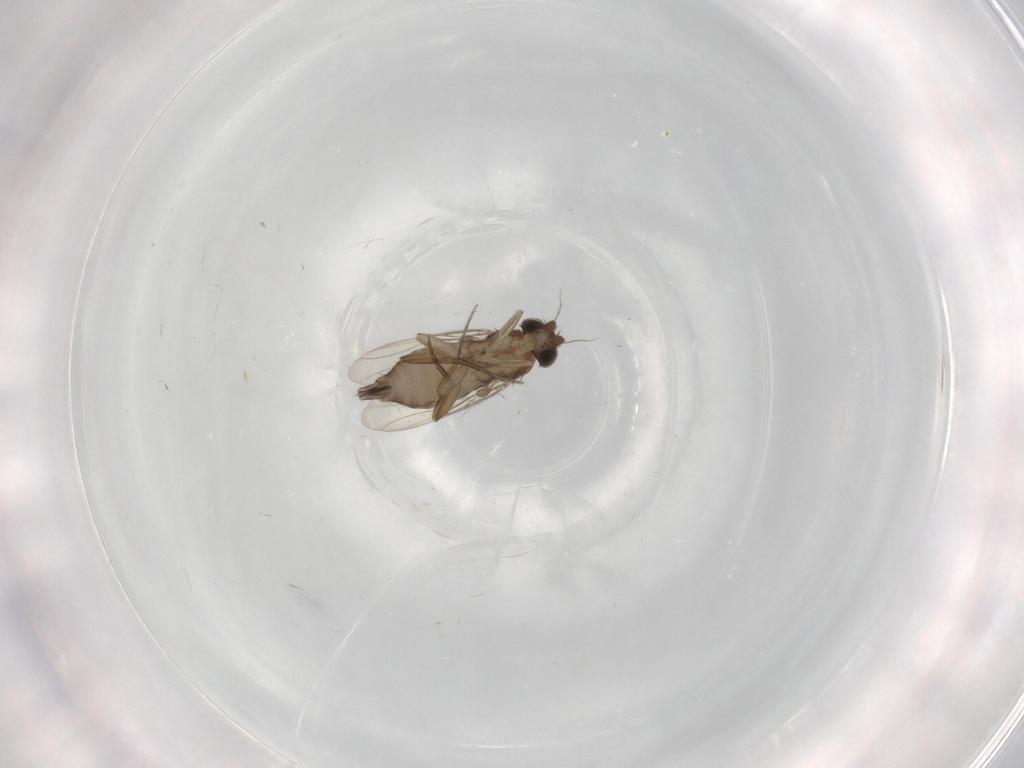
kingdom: Animalia
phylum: Arthropoda
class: Insecta
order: Diptera
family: Phoridae
